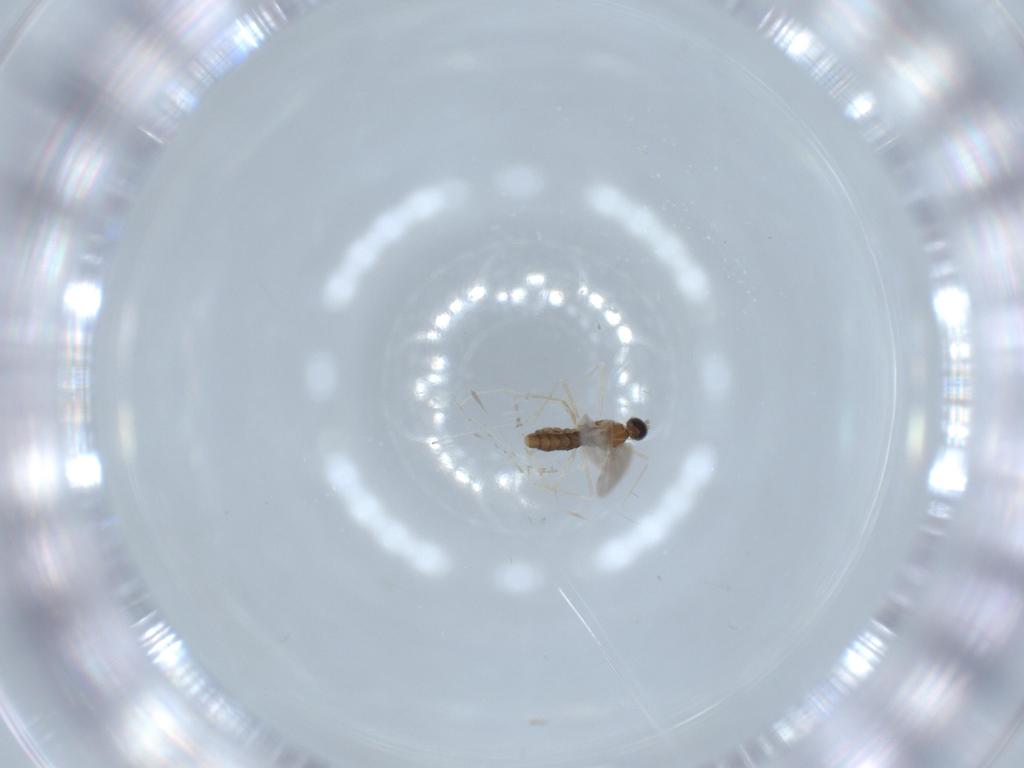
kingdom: Animalia
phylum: Arthropoda
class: Insecta
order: Diptera
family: Cecidomyiidae
